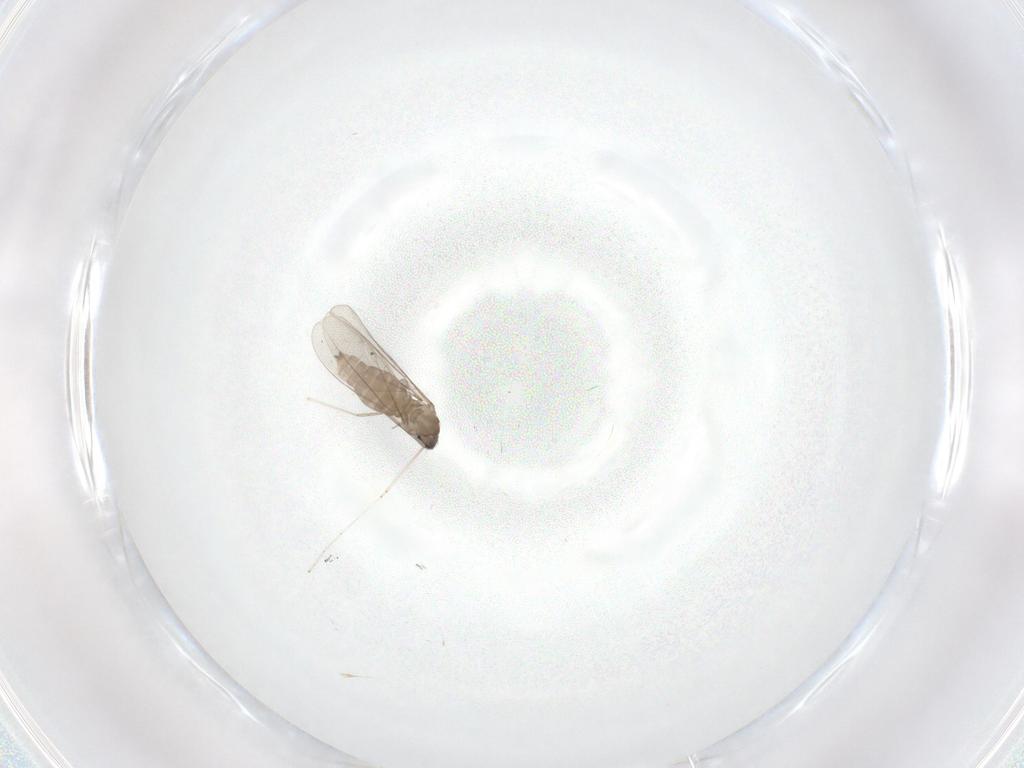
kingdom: Animalia
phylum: Arthropoda
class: Insecta
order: Diptera
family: Cecidomyiidae
